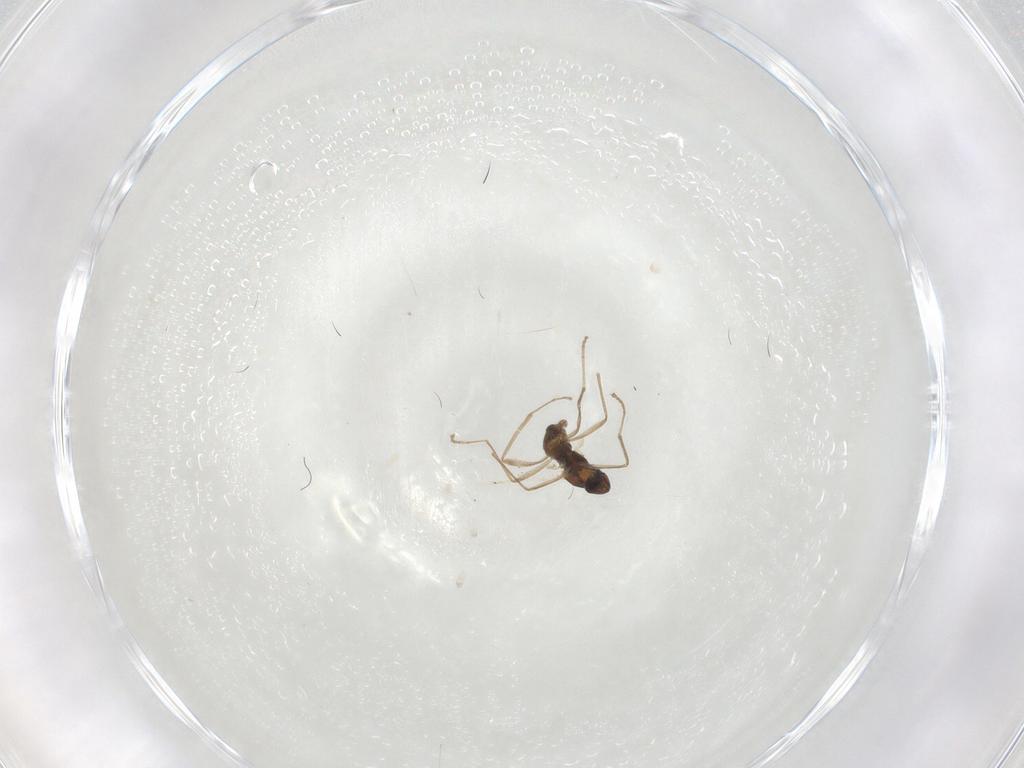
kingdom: Animalia
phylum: Arthropoda
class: Insecta
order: Diptera
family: Cecidomyiidae
